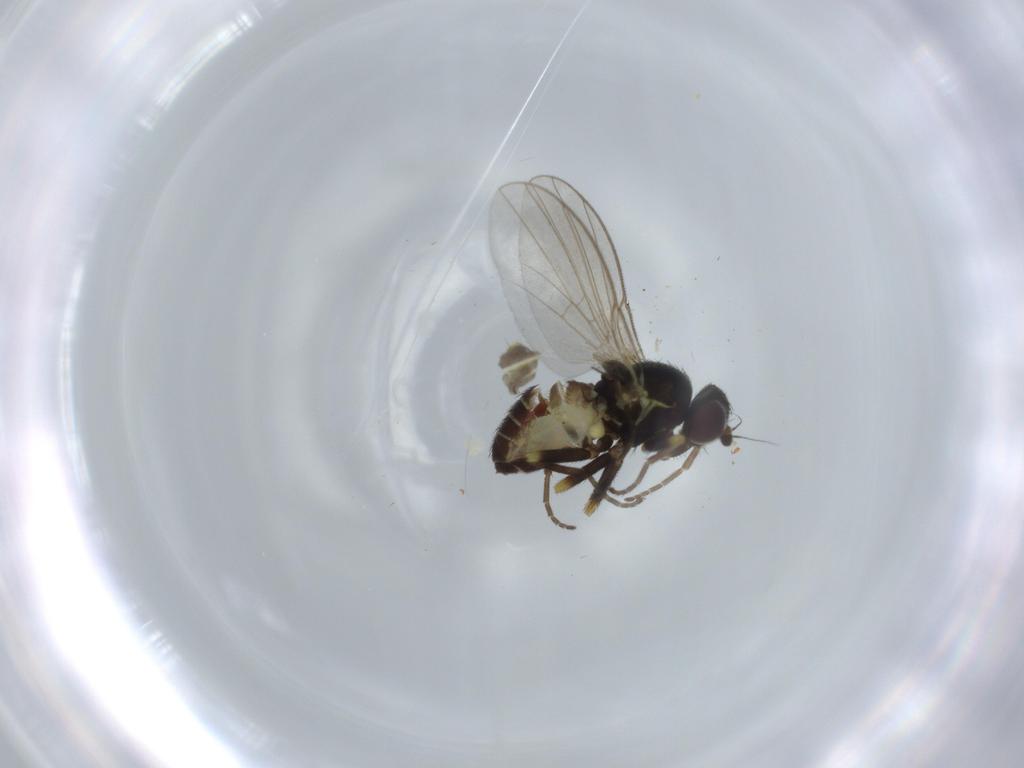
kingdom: Animalia
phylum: Arthropoda
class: Insecta
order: Diptera
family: Agromyzidae
